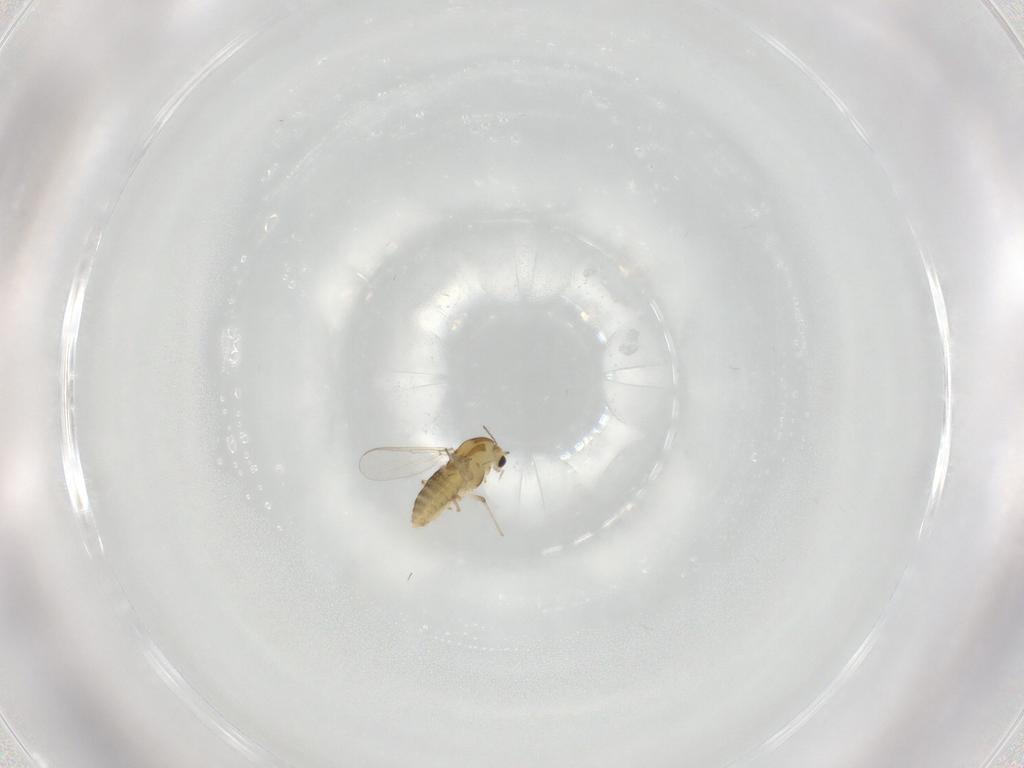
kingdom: Animalia
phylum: Arthropoda
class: Insecta
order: Diptera
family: Chironomidae
